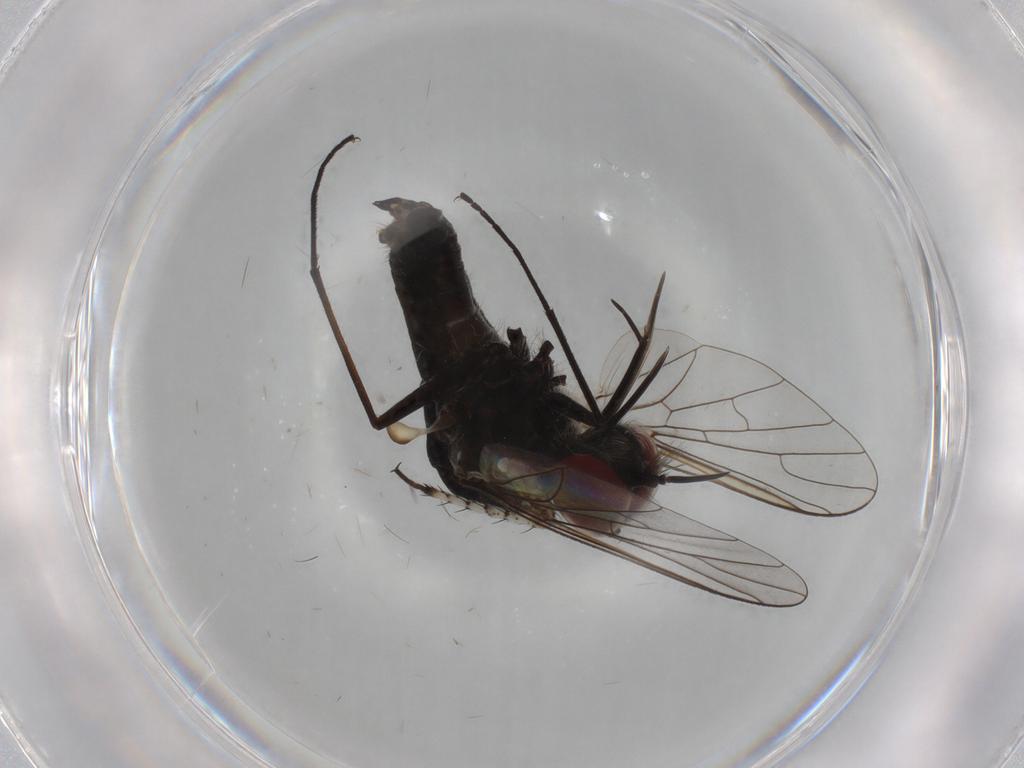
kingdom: Animalia
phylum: Arthropoda
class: Insecta
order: Diptera
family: Bombyliidae
